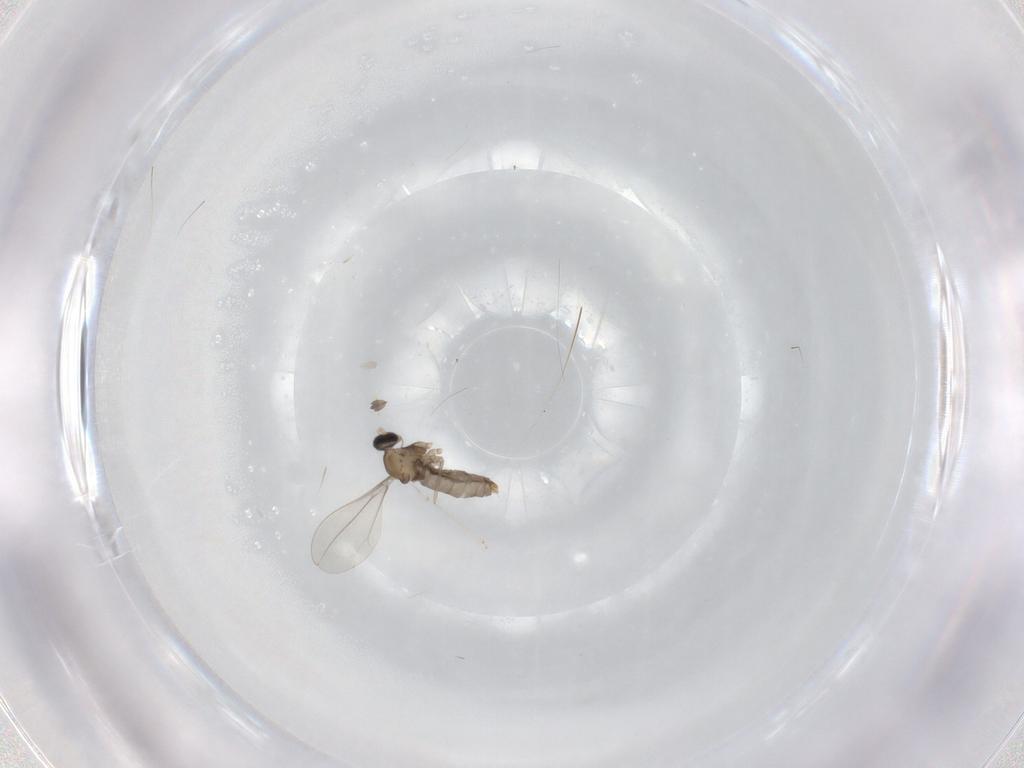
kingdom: Animalia
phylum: Arthropoda
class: Insecta
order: Diptera
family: Cecidomyiidae
